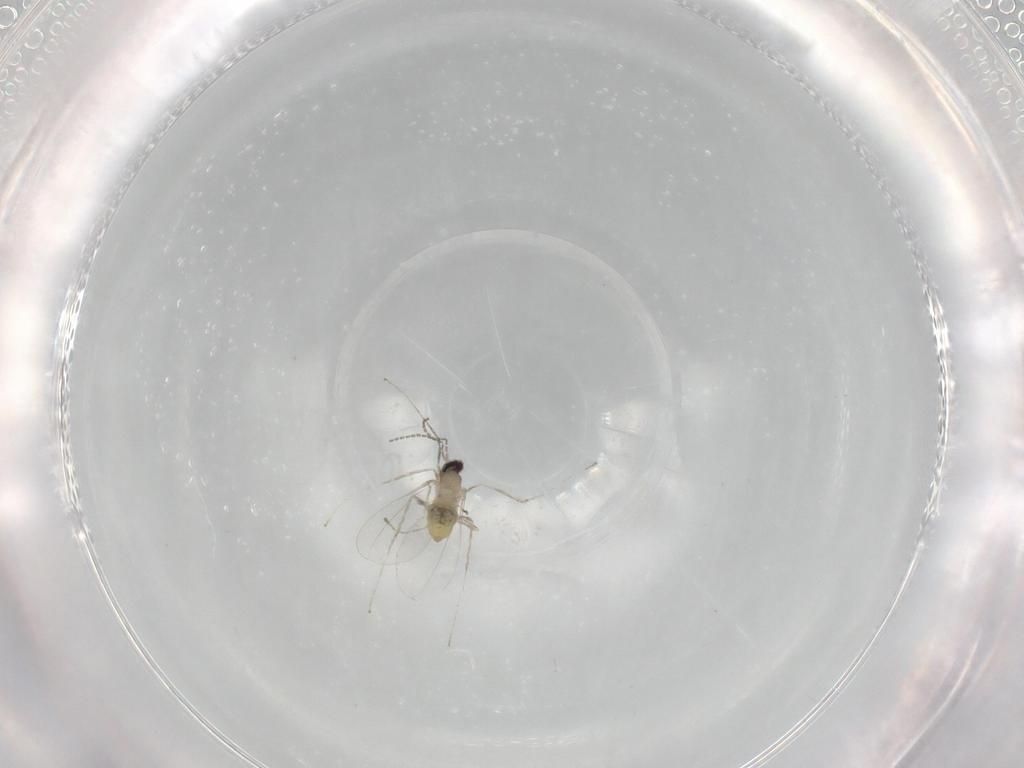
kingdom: Animalia
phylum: Arthropoda
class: Insecta
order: Diptera
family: Cecidomyiidae
